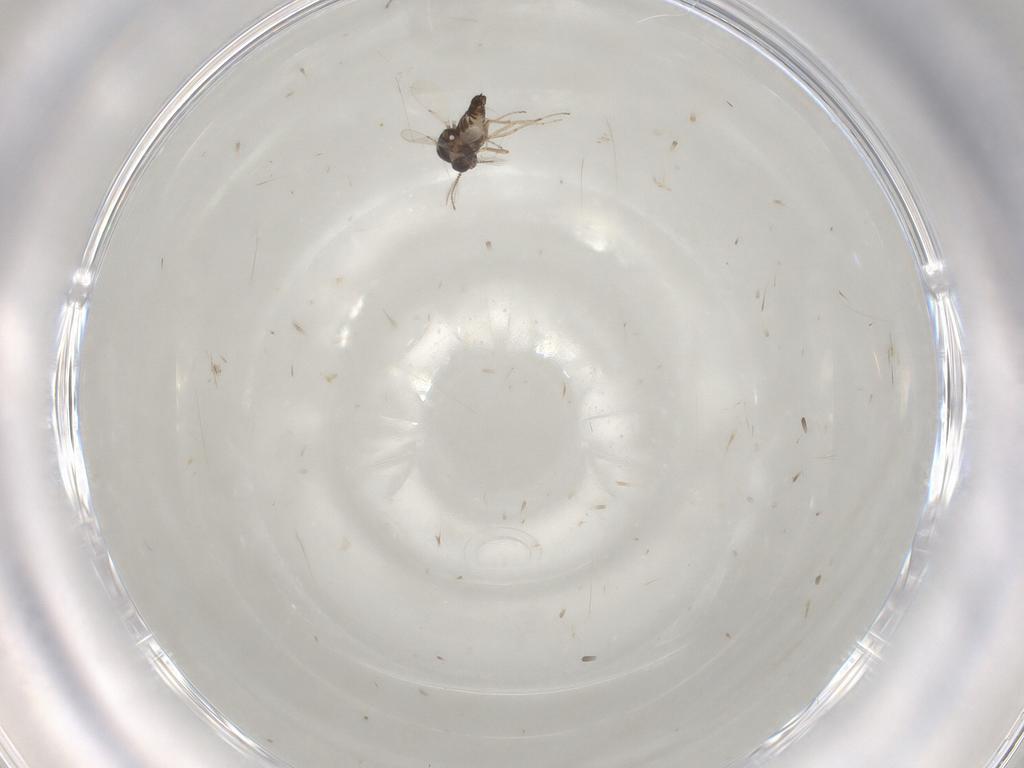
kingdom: Animalia
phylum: Arthropoda
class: Insecta
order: Diptera
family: Ceratopogonidae
